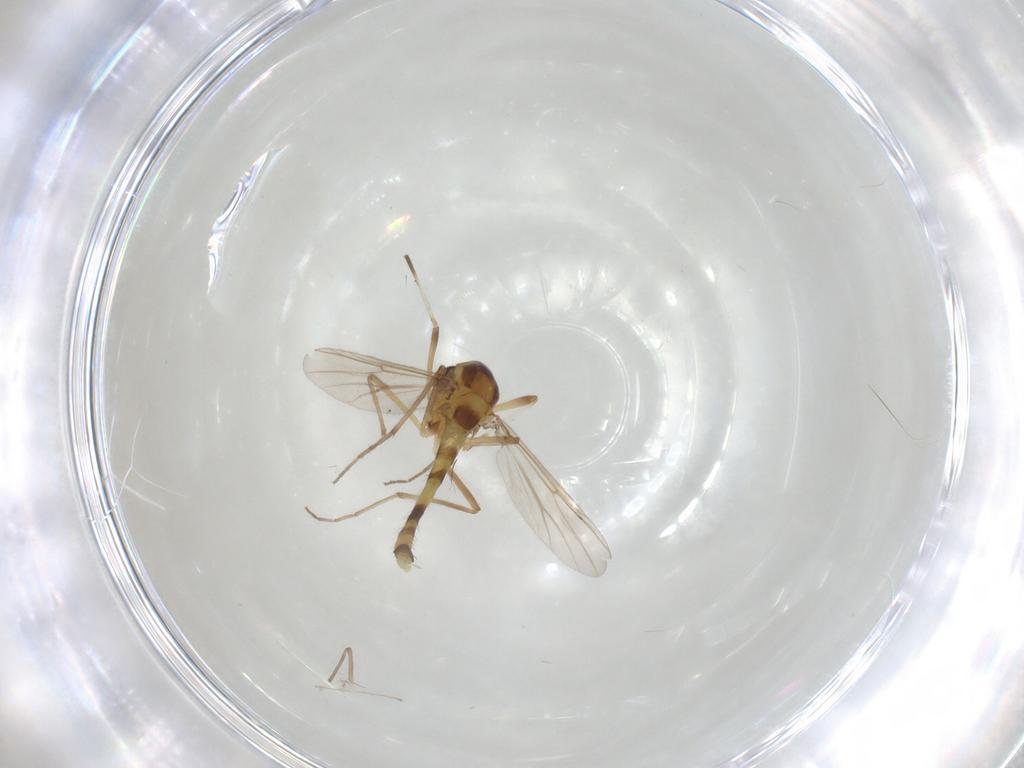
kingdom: Animalia
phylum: Arthropoda
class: Insecta
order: Diptera
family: Chironomidae
